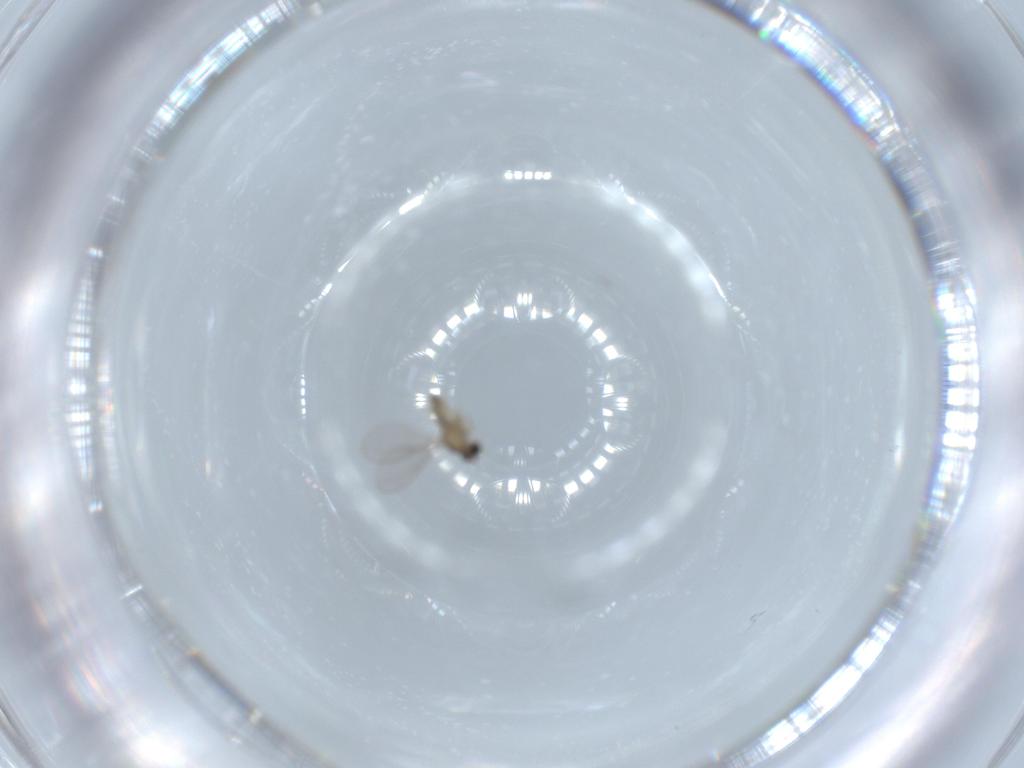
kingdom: Animalia
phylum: Arthropoda
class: Insecta
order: Diptera
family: Cecidomyiidae
